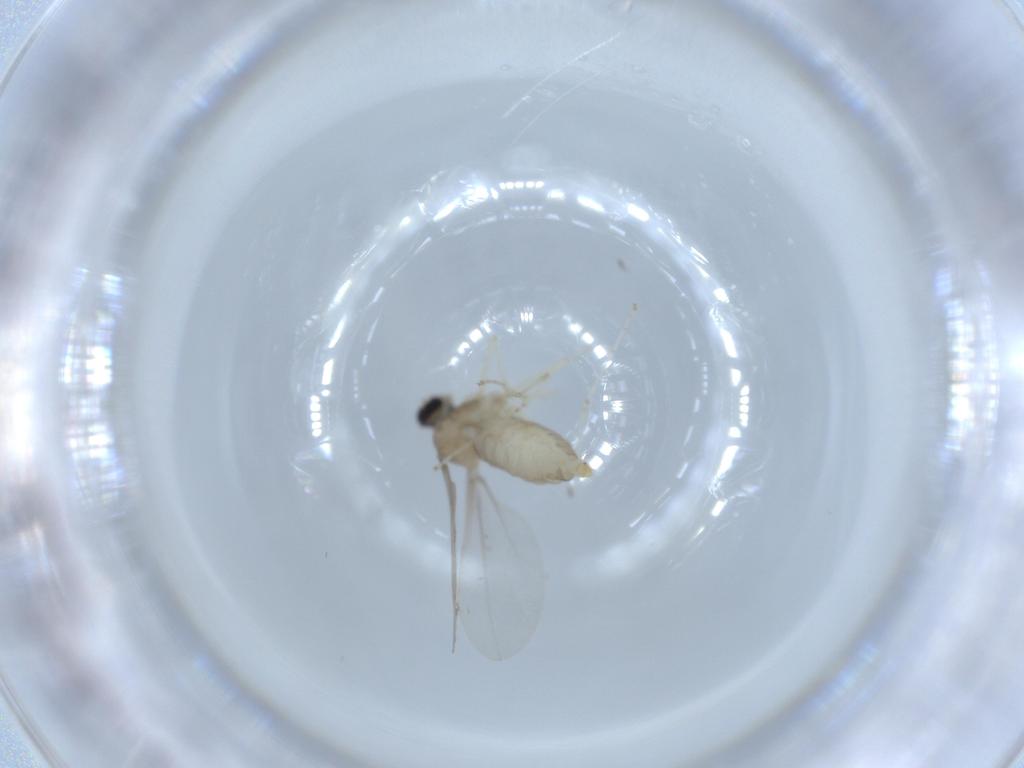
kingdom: Animalia
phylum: Arthropoda
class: Insecta
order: Diptera
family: Cecidomyiidae
